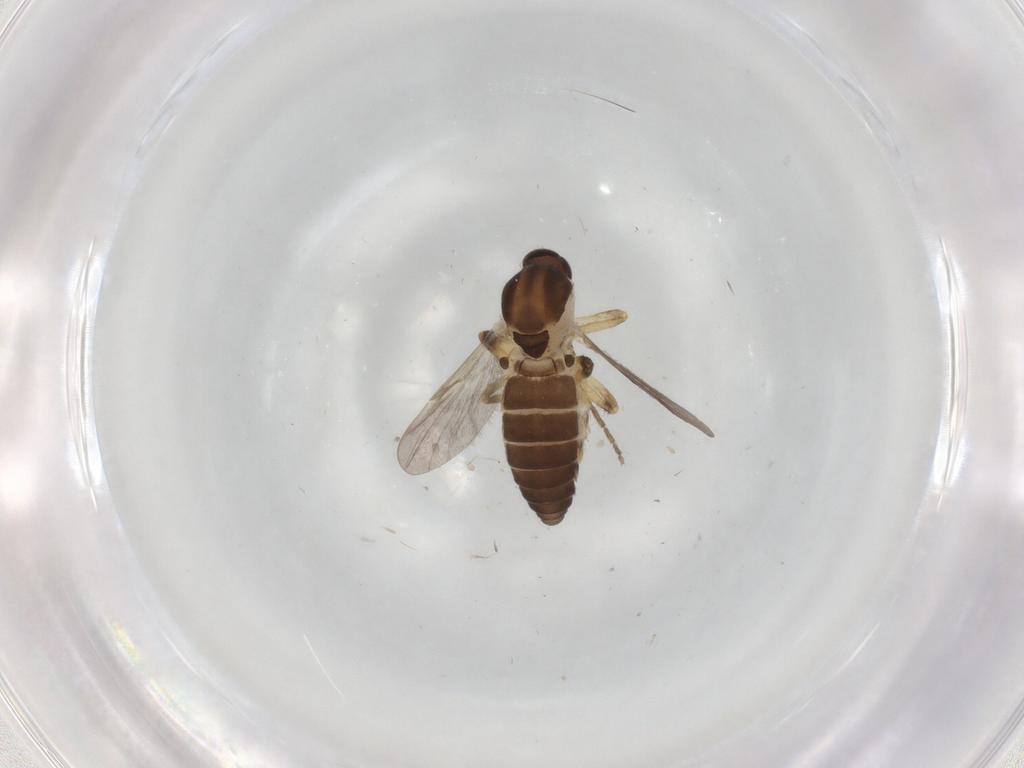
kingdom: Animalia
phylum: Arthropoda
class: Insecta
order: Diptera
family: Ceratopogonidae
